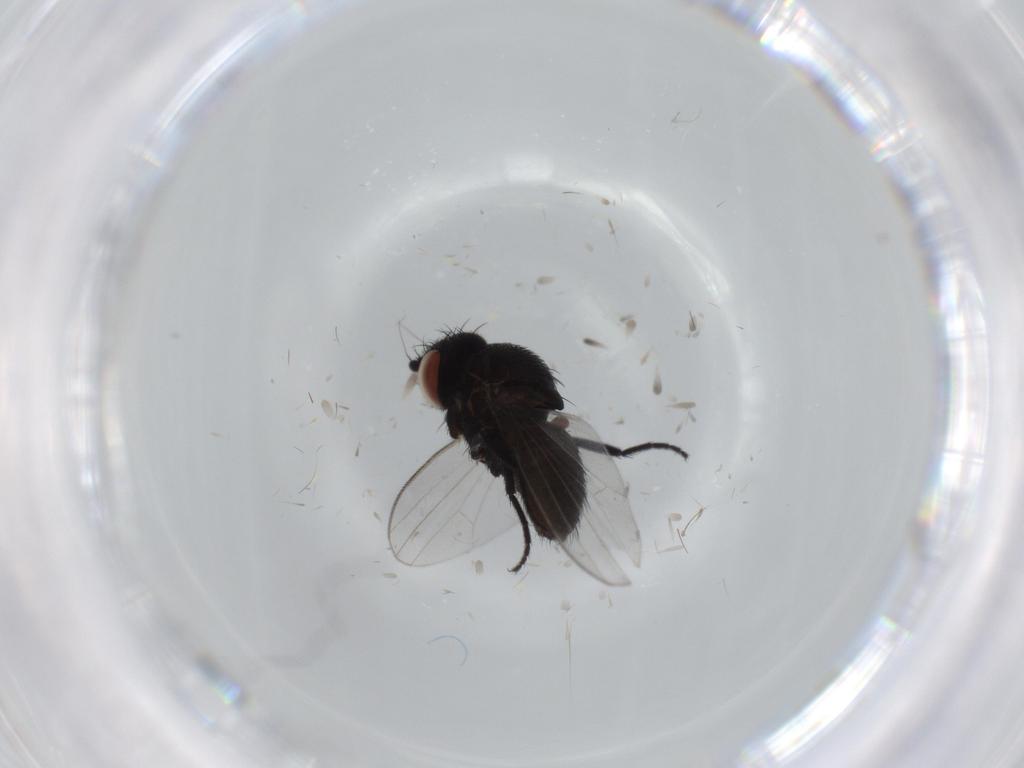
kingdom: Animalia
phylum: Arthropoda
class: Insecta
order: Diptera
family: Milichiidae
